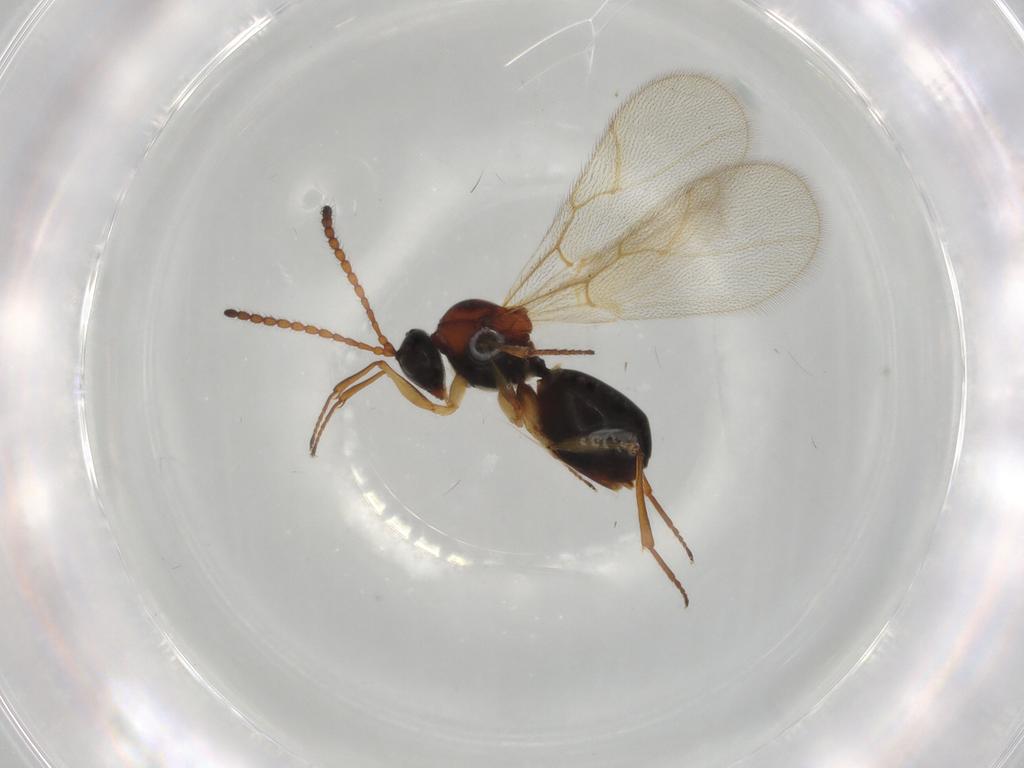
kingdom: Animalia
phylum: Arthropoda
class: Insecta
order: Hymenoptera
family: Figitidae
